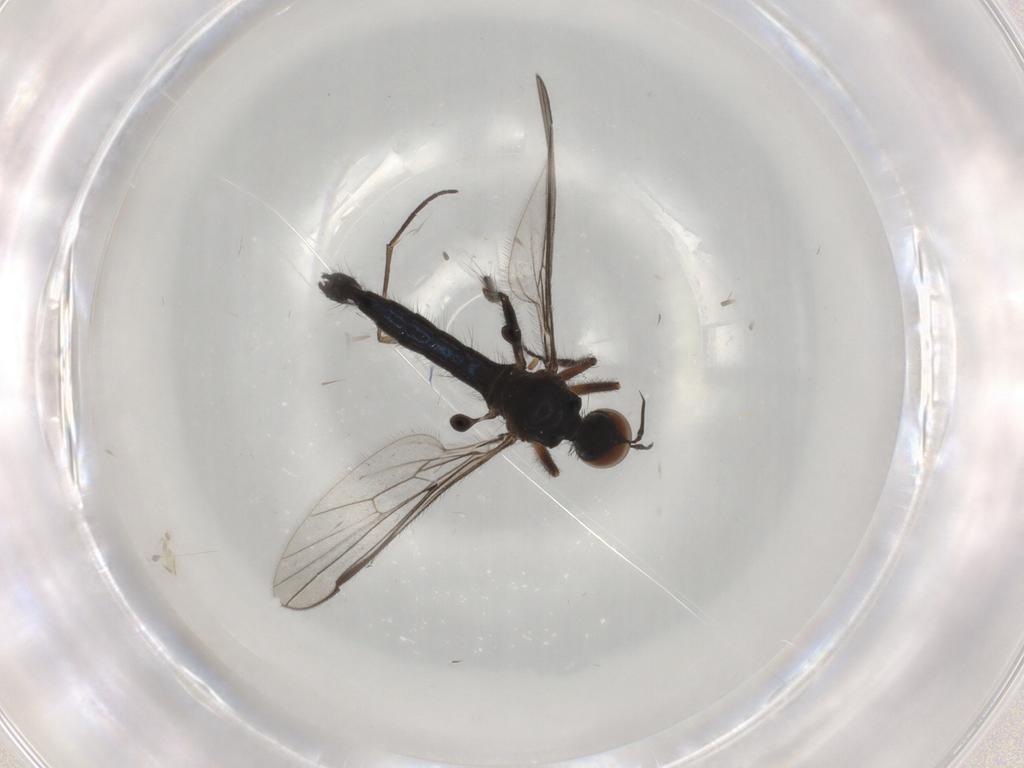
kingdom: Animalia
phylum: Arthropoda
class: Insecta
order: Diptera
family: Empididae
